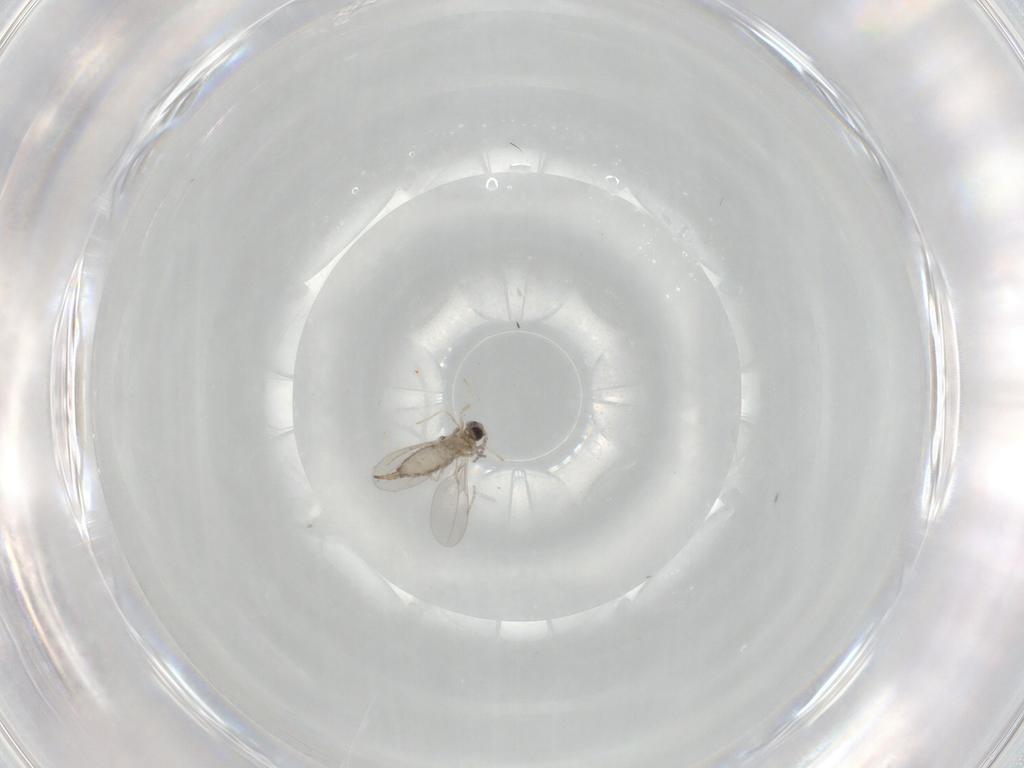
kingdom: Animalia
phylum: Arthropoda
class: Insecta
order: Diptera
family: Cecidomyiidae
